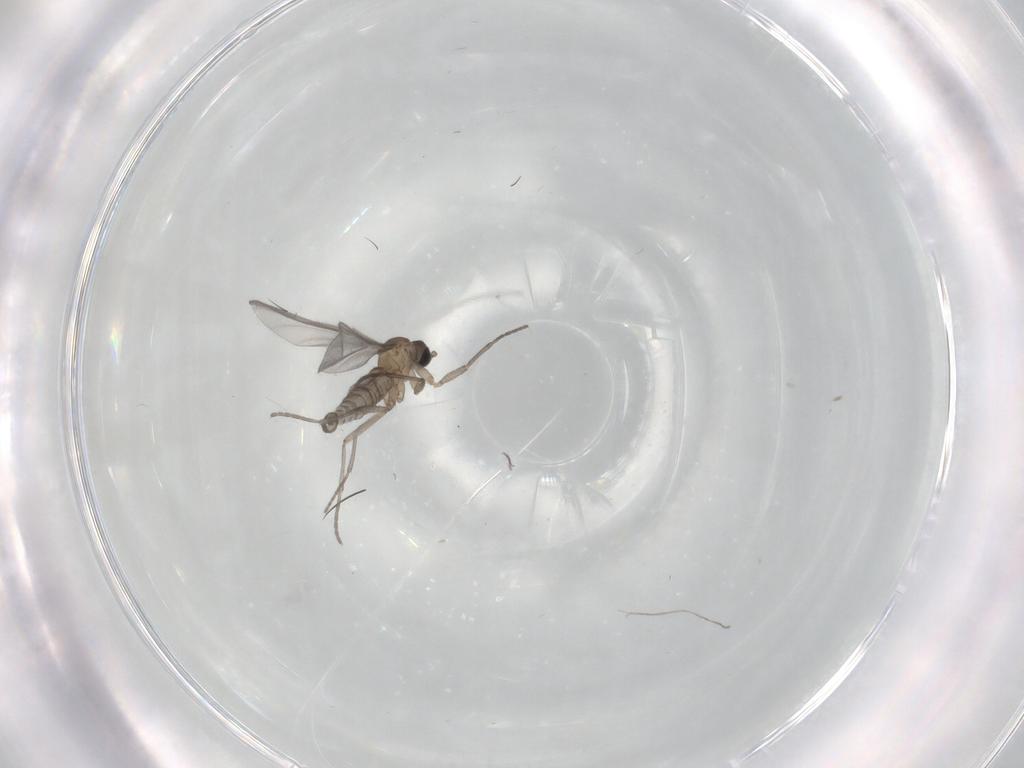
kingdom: Animalia
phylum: Arthropoda
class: Insecta
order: Diptera
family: Sciaridae
